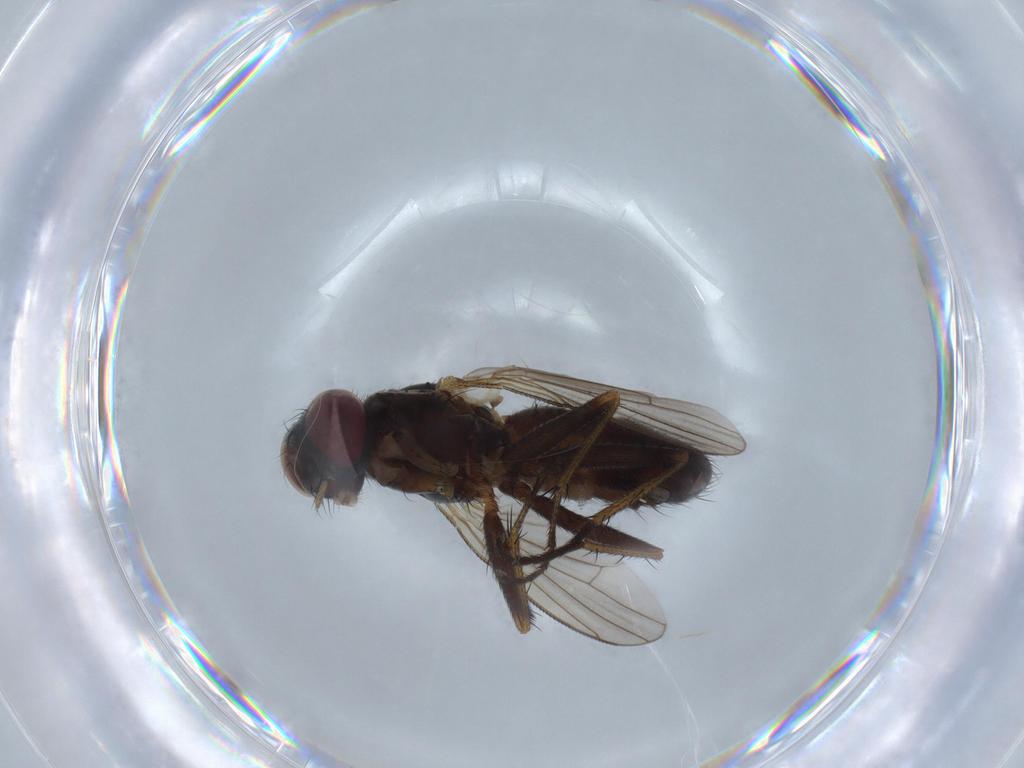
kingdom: Animalia
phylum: Arthropoda
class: Insecta
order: Diptera
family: Muscidae
